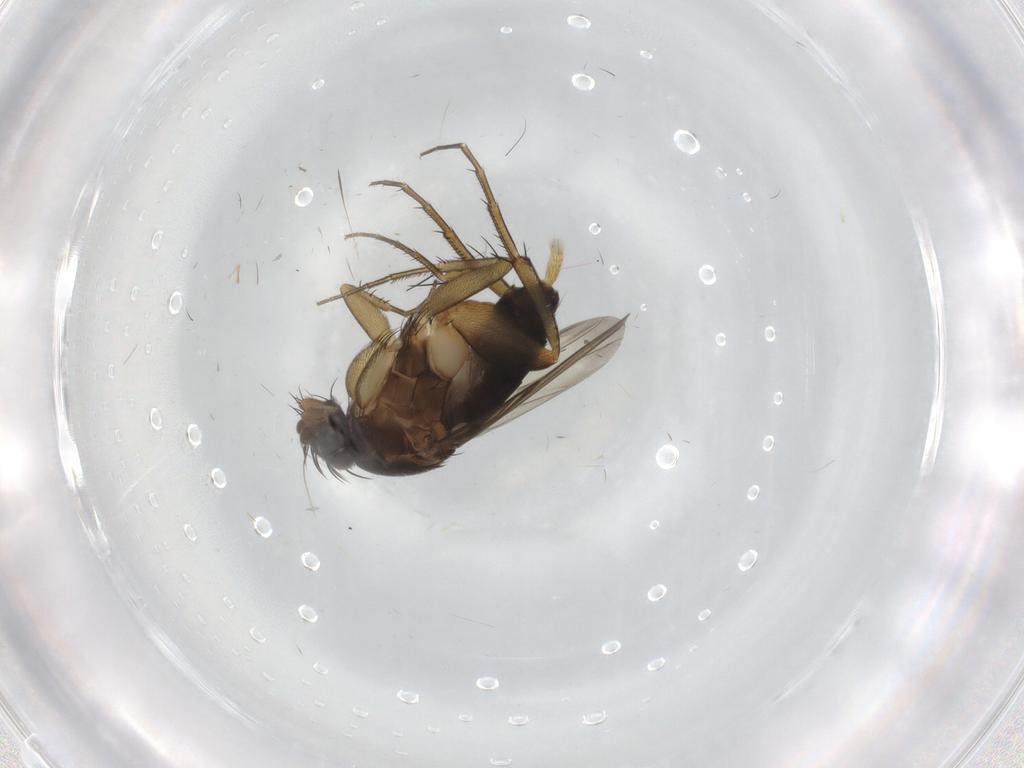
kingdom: Animalia
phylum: Arthropoda
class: Insecta
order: Diptera
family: Phoridae
